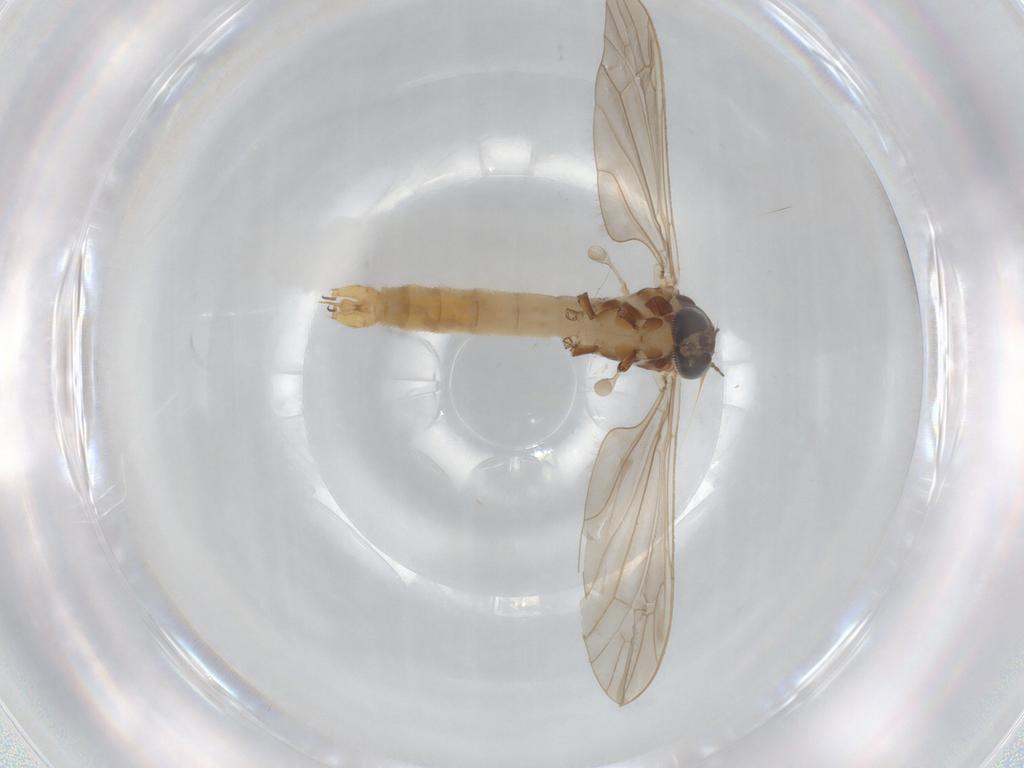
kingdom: Animalia
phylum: Arthropoda
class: Insecta
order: Diptera
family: Limoniidae
